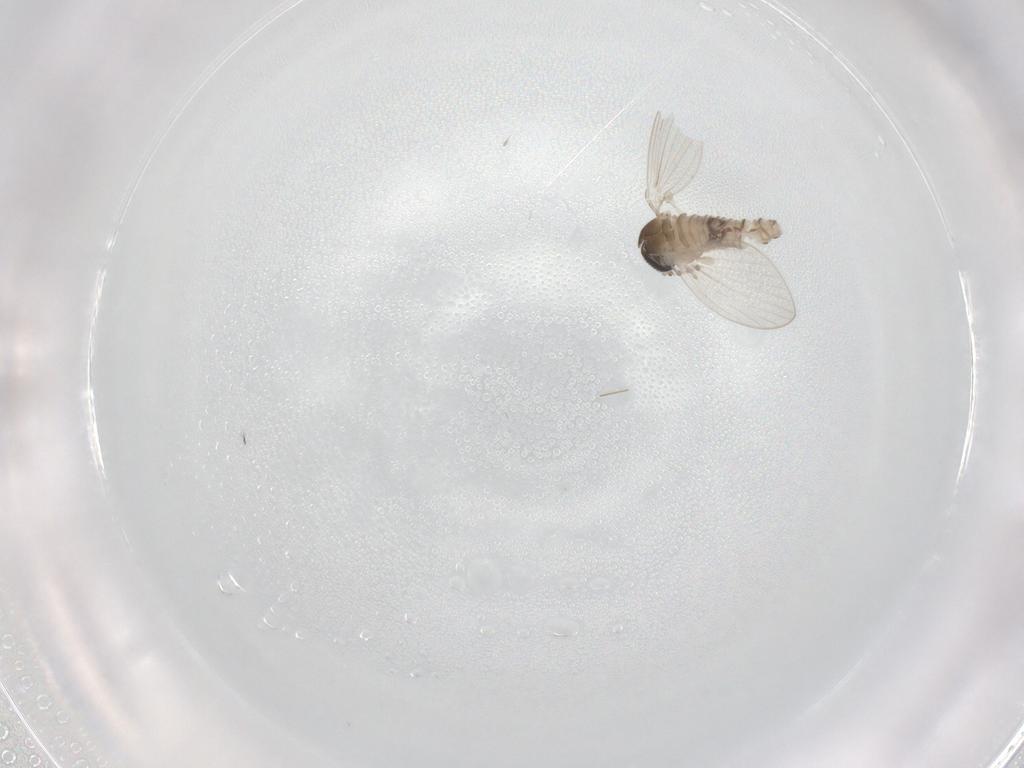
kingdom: Animalia
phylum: Arthropoda
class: Insecta
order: Diptera
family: Psychodidae
